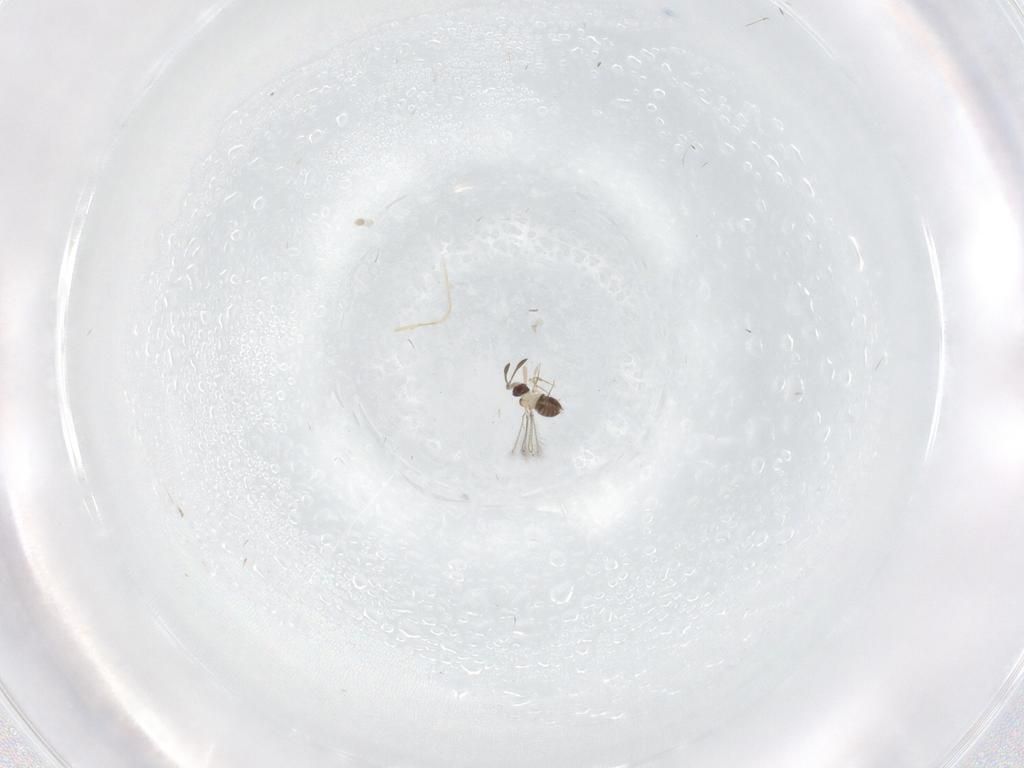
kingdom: Animalia
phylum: Arthropoda
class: Insecta
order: Hymenoptera
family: Mymaridae
